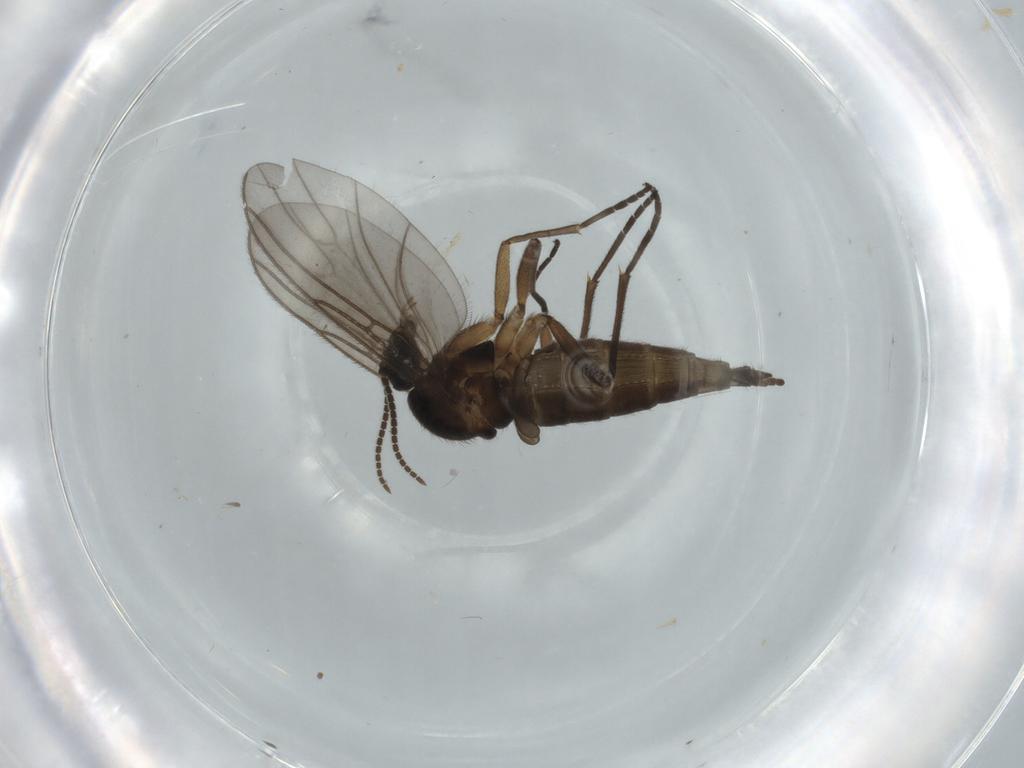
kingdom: Animalia
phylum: Arthropoda
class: Insecta
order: Diptera
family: Sciaridae
